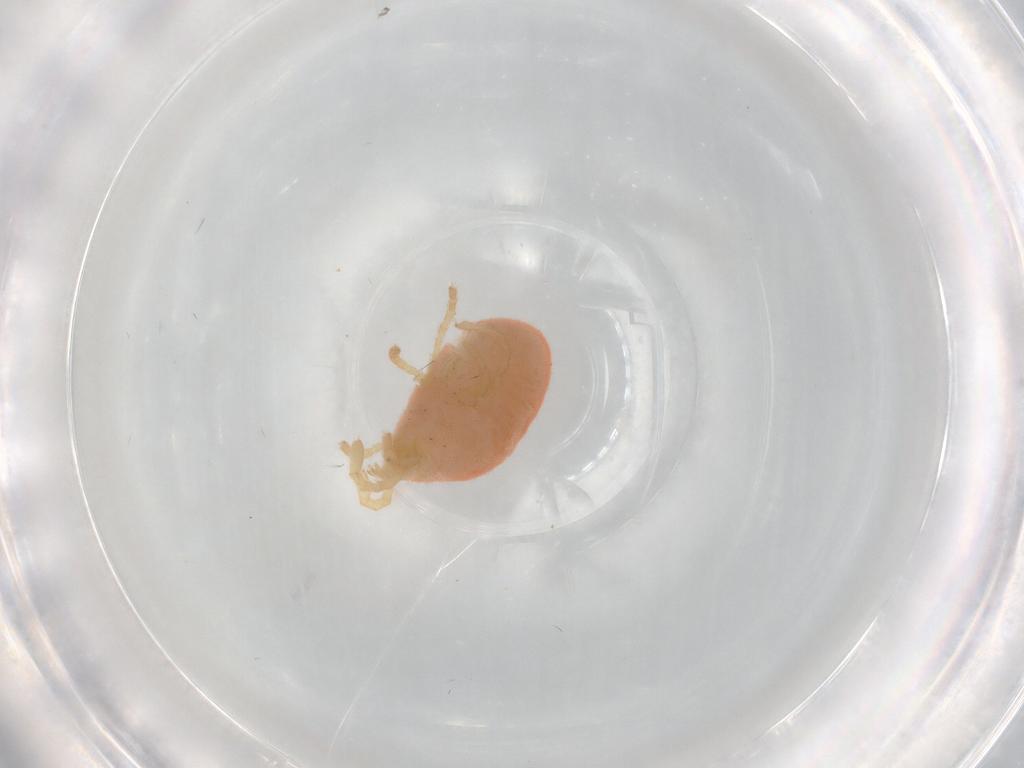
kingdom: Animalia
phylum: Arthropoda
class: Arachnida
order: Trombidiformes
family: Microtrombidiidae
